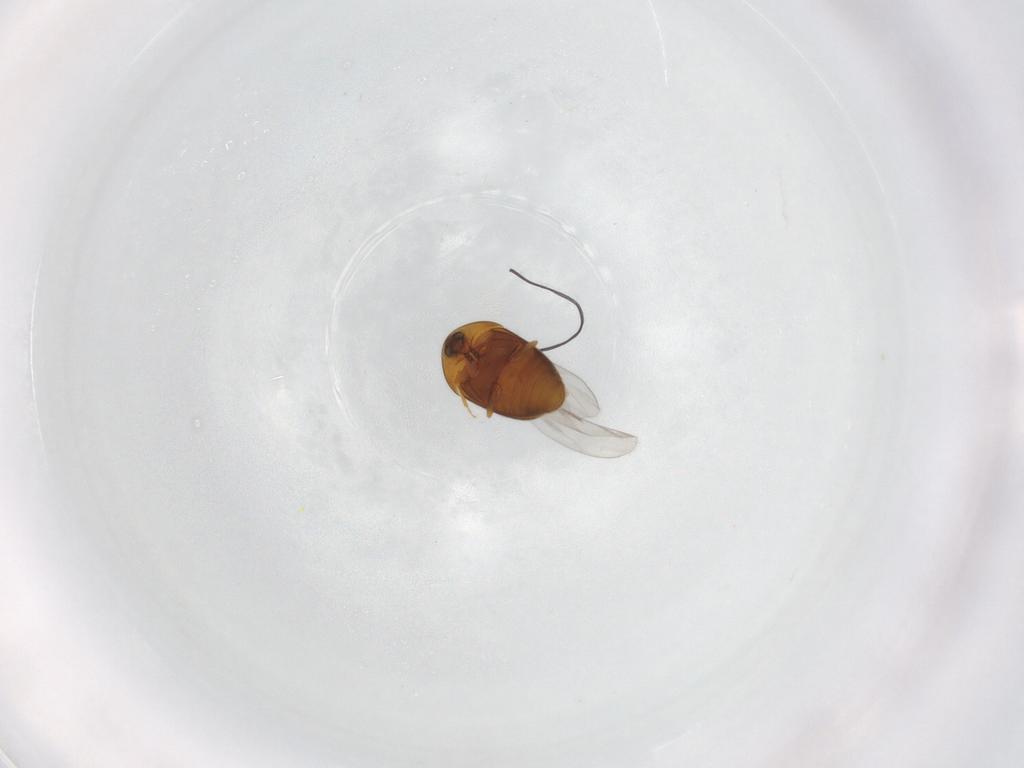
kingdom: Animalia
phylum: Arthropoda
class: Insecta
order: Coleoptera
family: Corylophidae
